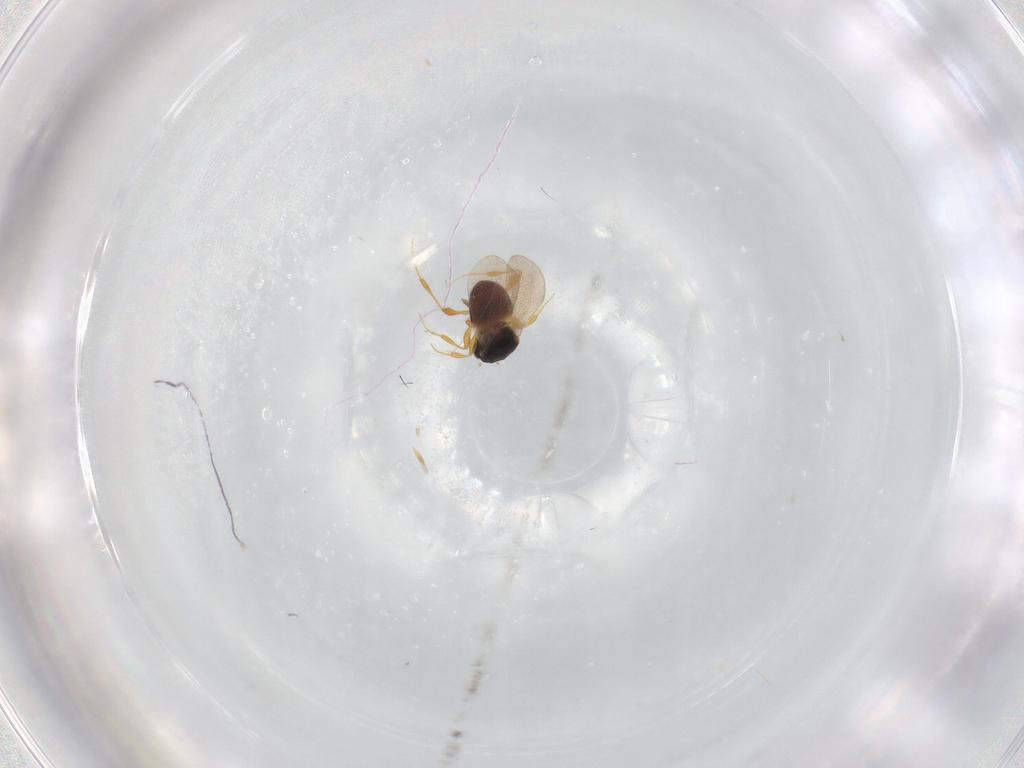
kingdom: Animalia
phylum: Arthropoda
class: Insecta
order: Hymenoptera
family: Platygastridae
